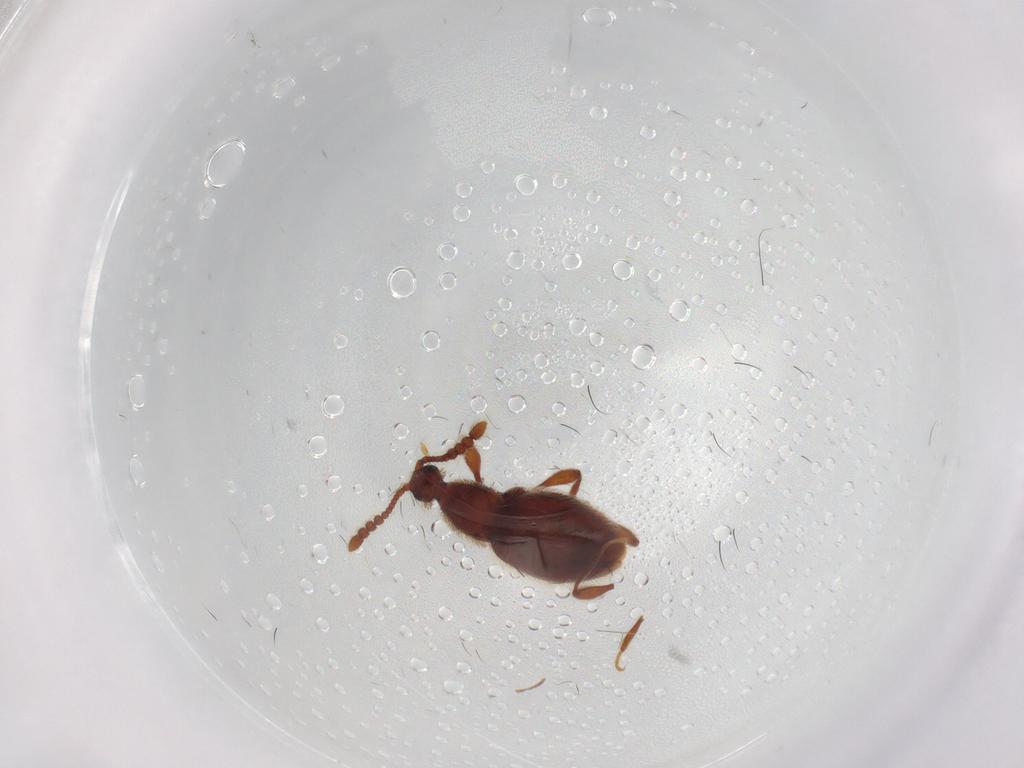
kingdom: Animalia
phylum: Arthropoda
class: Insecta
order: Coleoptera
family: Staphylinidae
